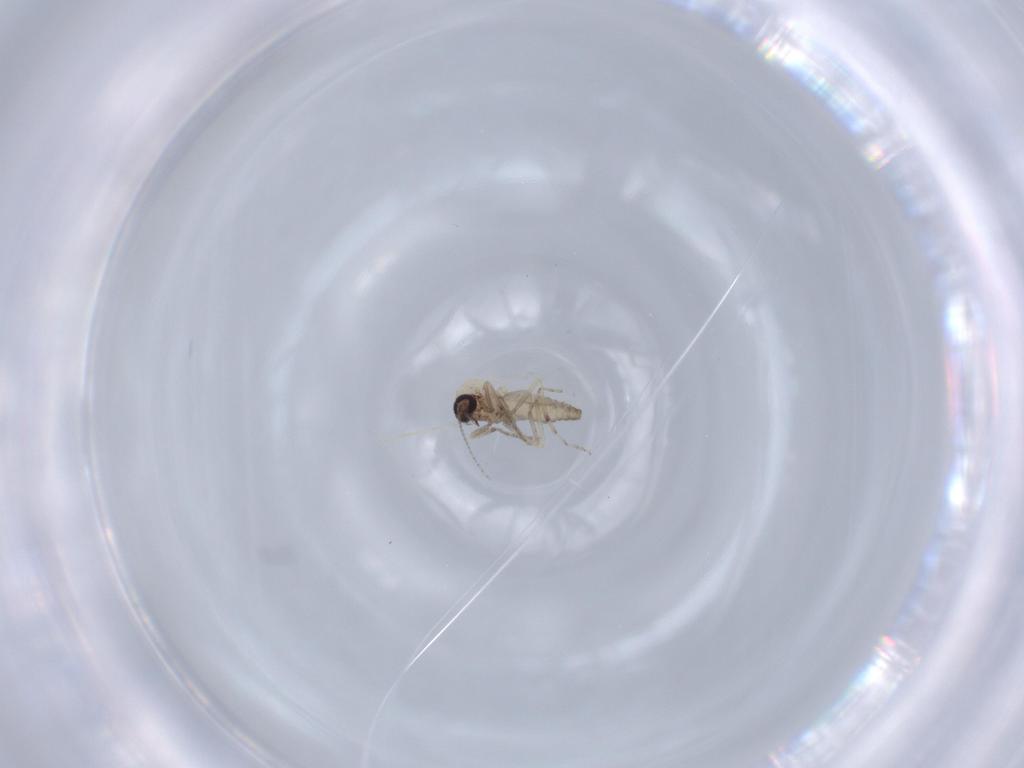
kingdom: Animalia
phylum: Arthropoda
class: Insecta
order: Diptera
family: Ceratopogonidae
